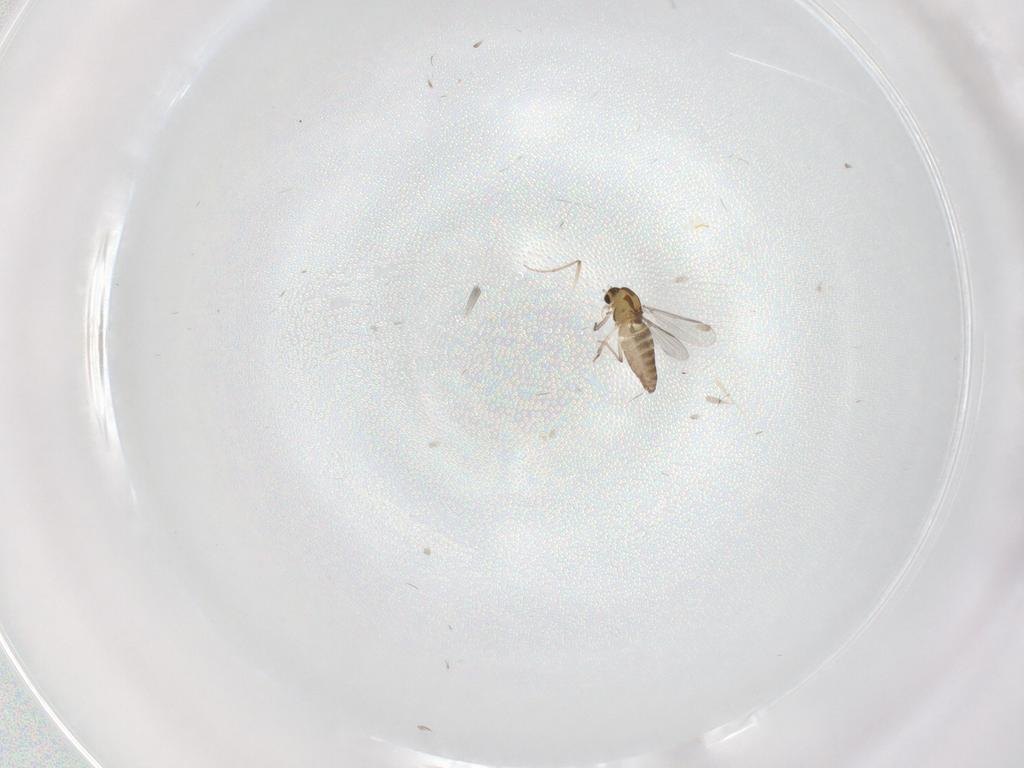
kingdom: Animalia
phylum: Arthropoda
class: Insecta
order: Diptera
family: Chironomidae
